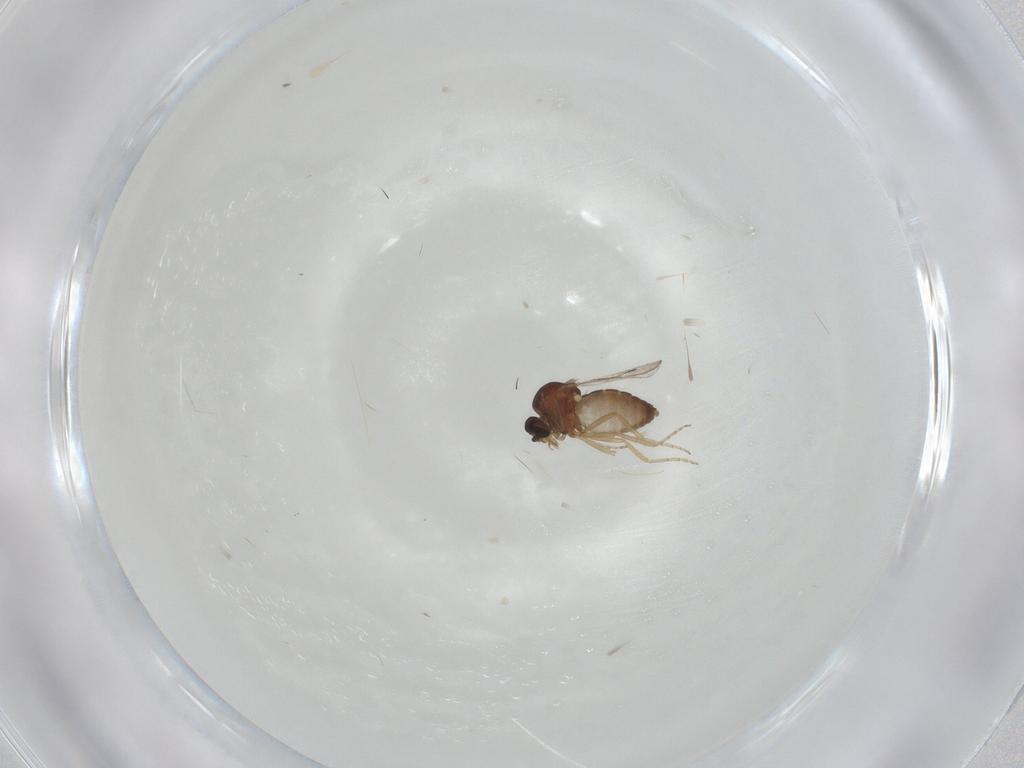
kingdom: Animalia
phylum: Arthropoda
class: Insecta
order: Diptera
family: Ceratopogonidae
